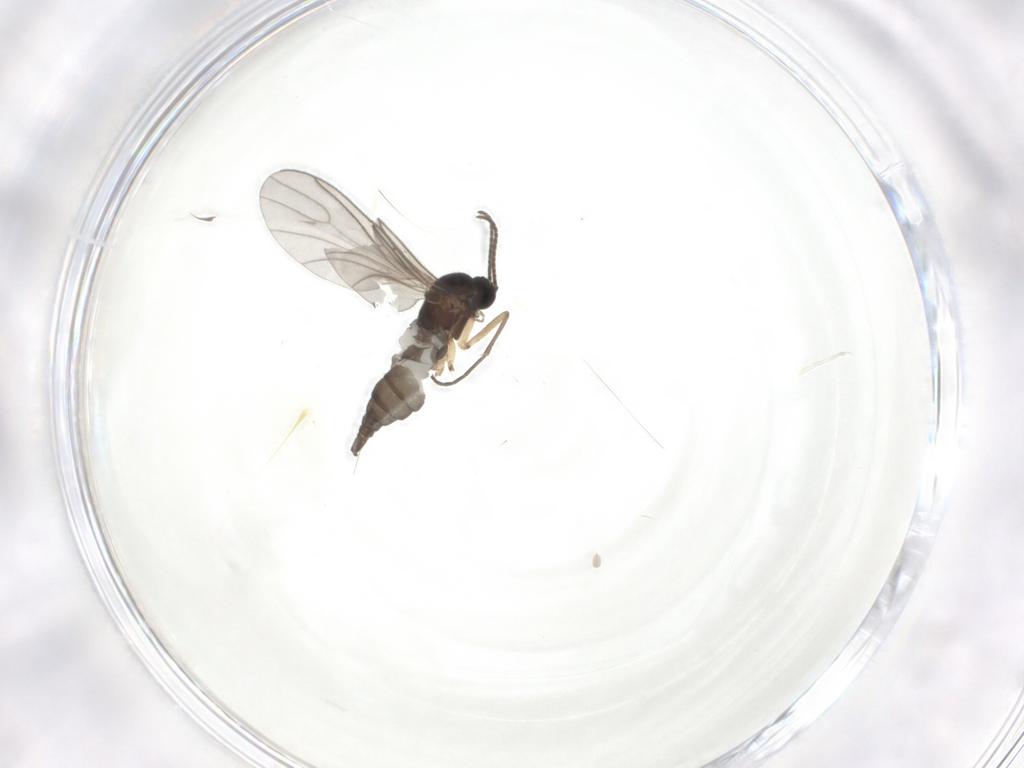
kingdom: Animalia
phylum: Arthropoda
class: Insecta
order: Diptera
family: Sciaridae
